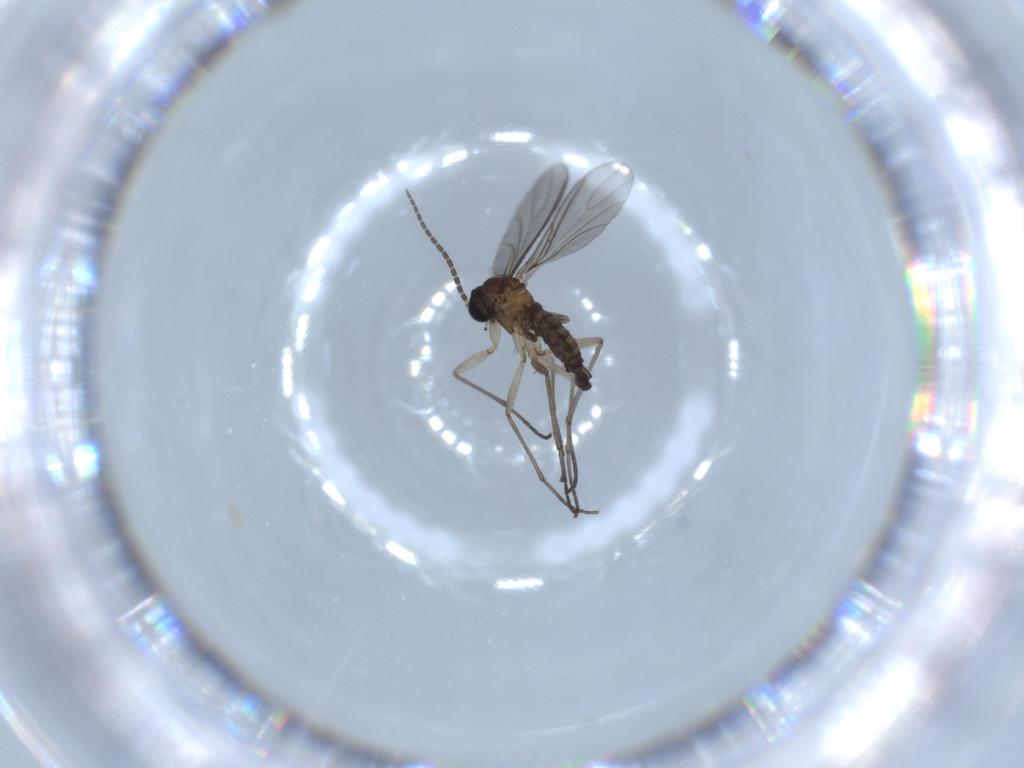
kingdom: Animalia
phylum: Arthropoda
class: Insecta
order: Diptera
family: Sciaridae
